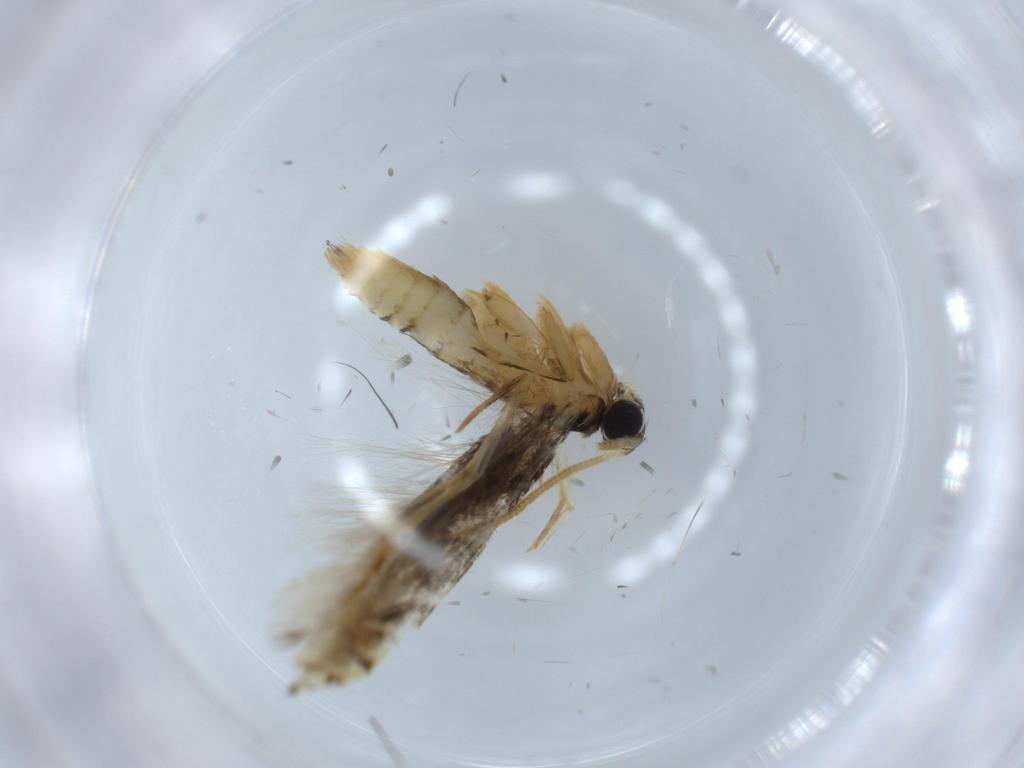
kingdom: Animalia
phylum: Arthropoda
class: Insecta
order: Lepidoptera
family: Tineidae
